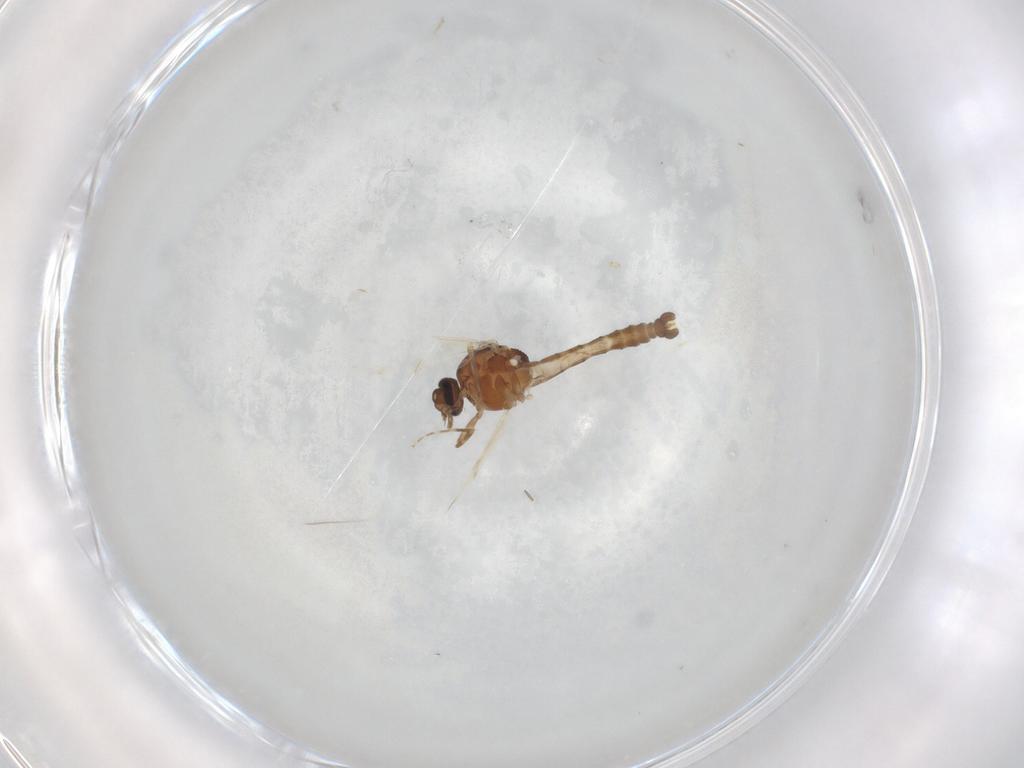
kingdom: Animalia
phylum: Arthropoda
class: Insecta
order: Diptera
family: Ceratopogonidae
